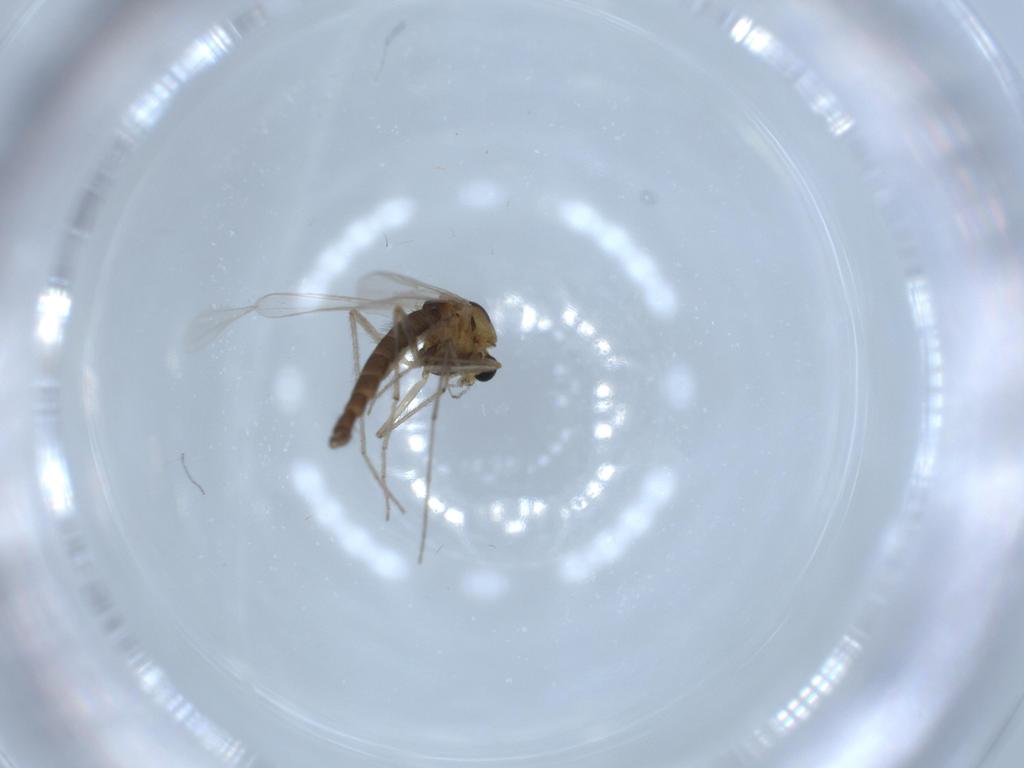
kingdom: Animalia
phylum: Arthropoda
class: Insecta
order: Diptera
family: Chironomidae
